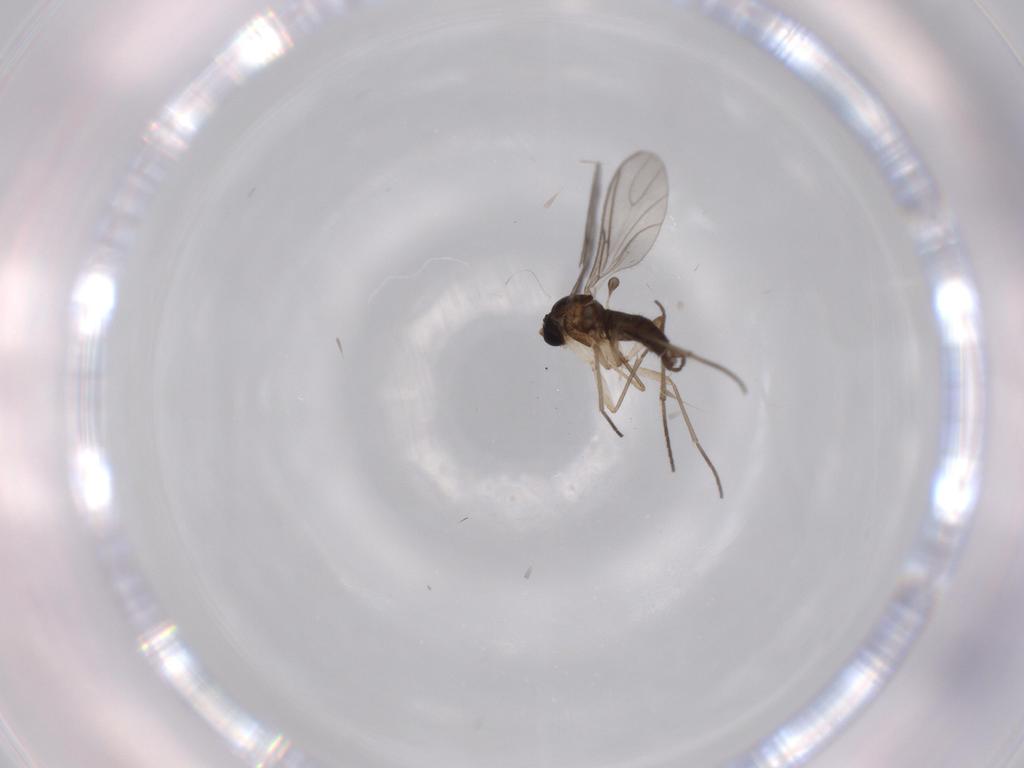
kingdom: Animalia
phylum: Arthropoda
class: Insecta
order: Diptera
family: Sciaridae
